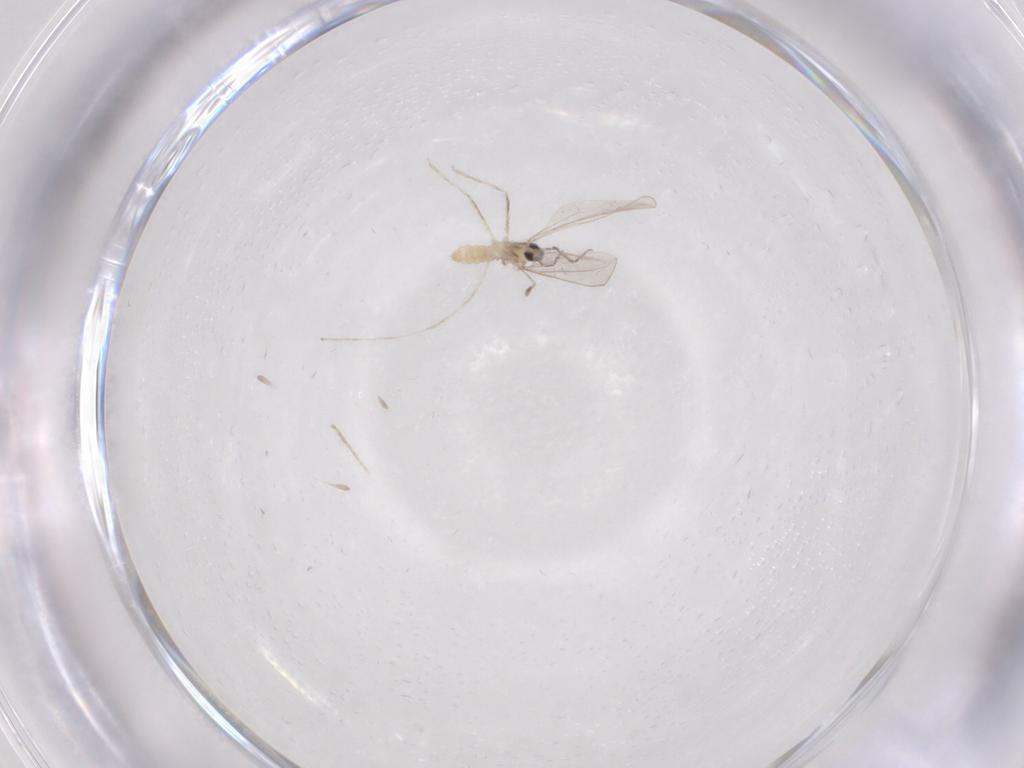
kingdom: Animalia
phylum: Arthropoda
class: Insecta
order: Diptera
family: Cecidomyiidae
